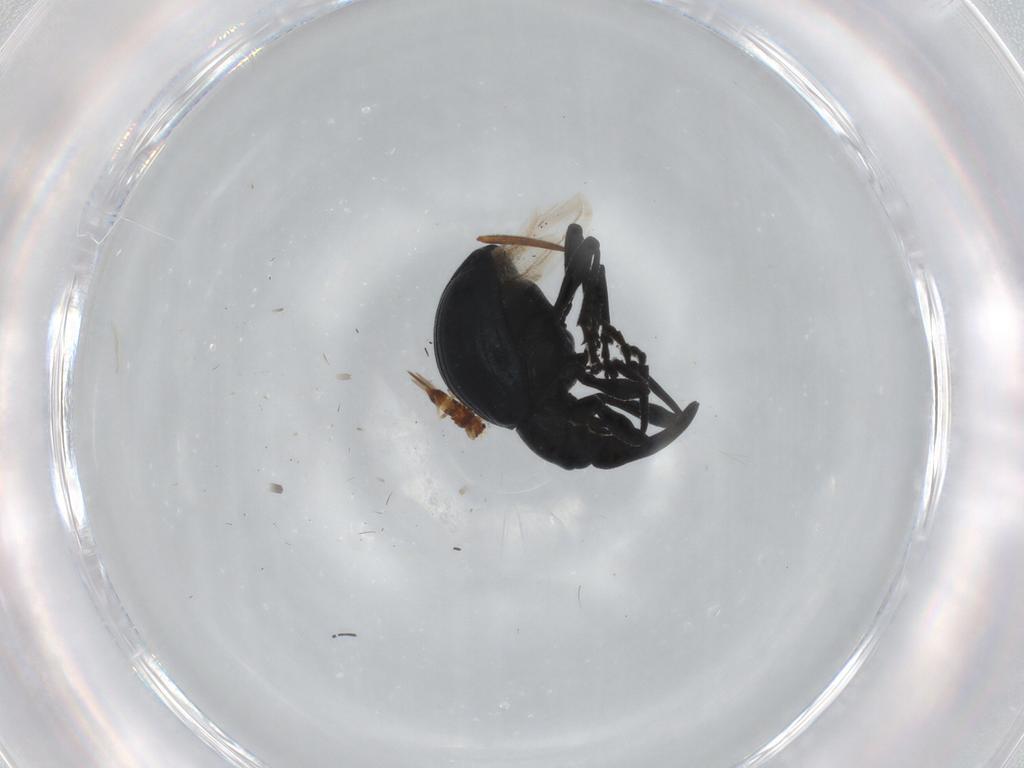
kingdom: Animalia
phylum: Arthropoda
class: Insecta
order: Coleoptera
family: Apionidae
